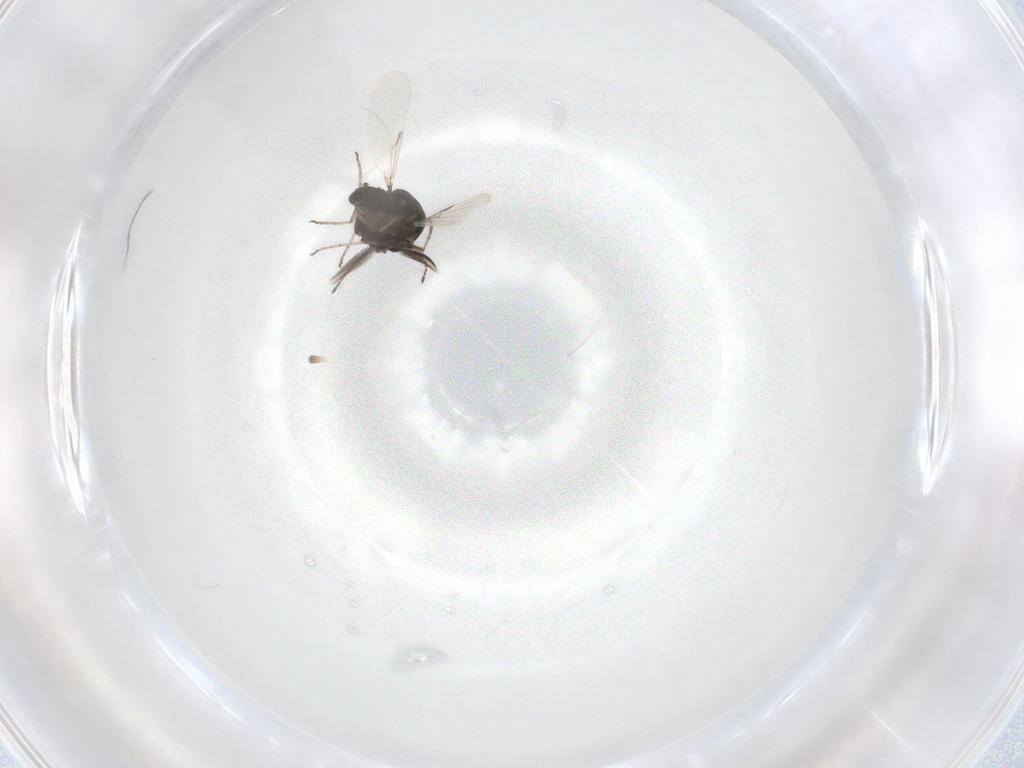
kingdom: Animalia
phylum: Arthropoda
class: Insecta
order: Diptera
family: Ceratopogonidae
